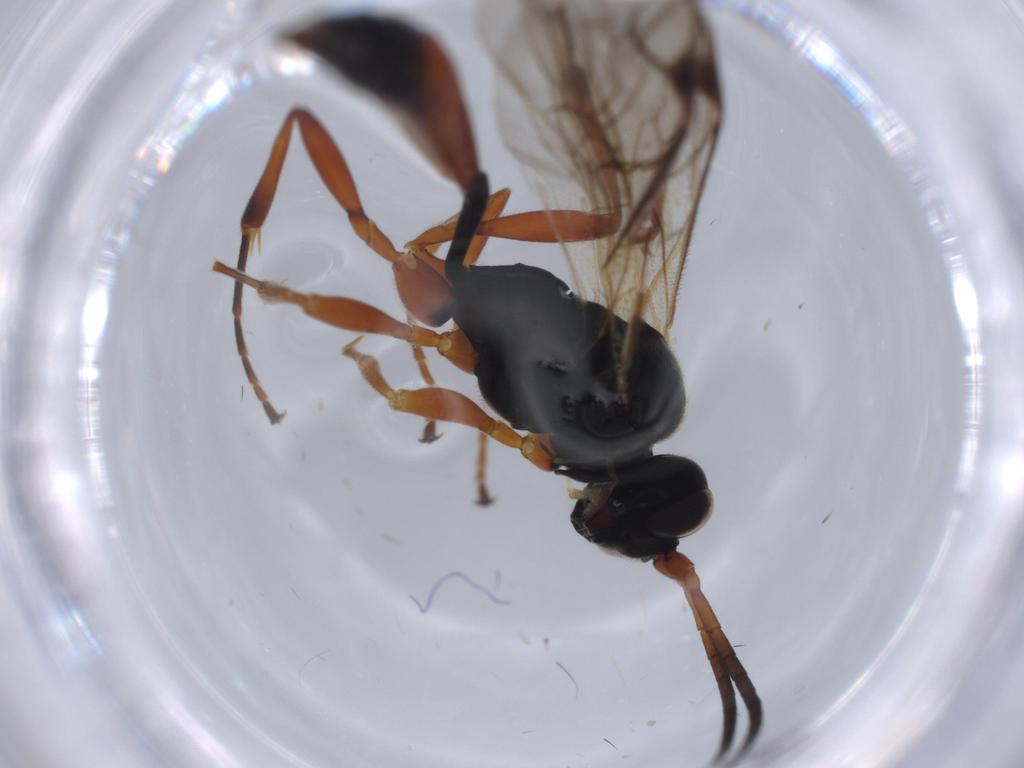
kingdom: Animalia
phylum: Arthropoda
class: Insecta
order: Hymenoptera
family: Ichneumonidae
